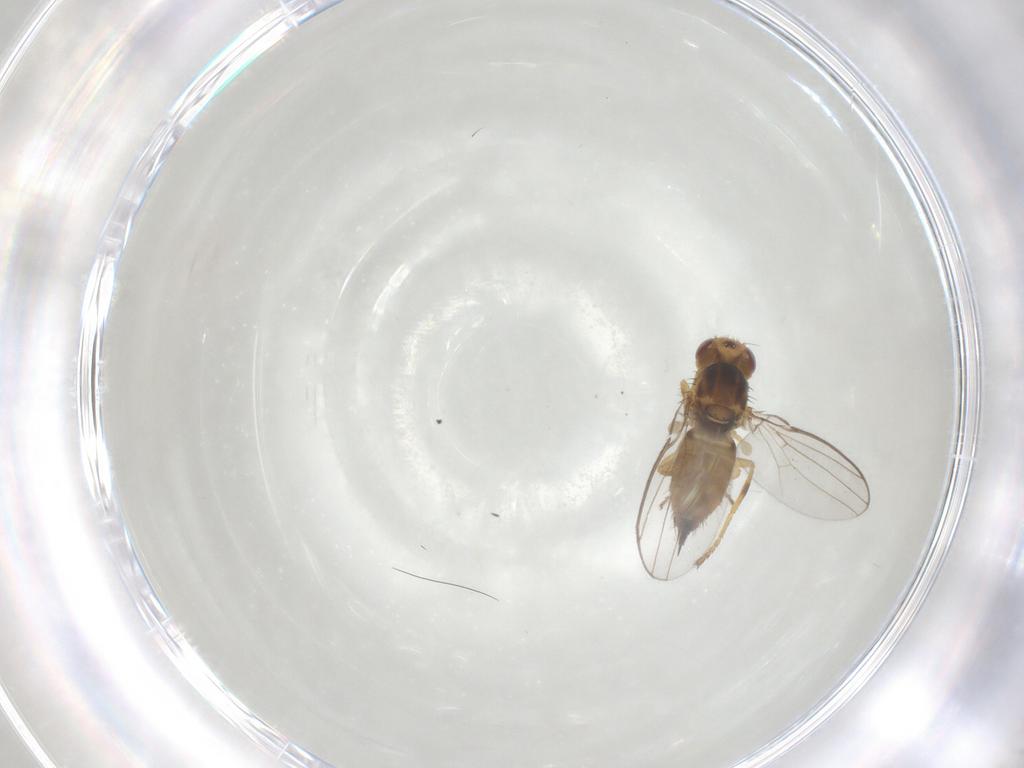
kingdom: Animalia
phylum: Arthropoda
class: Insecta
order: Diptera
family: Chloropidae
